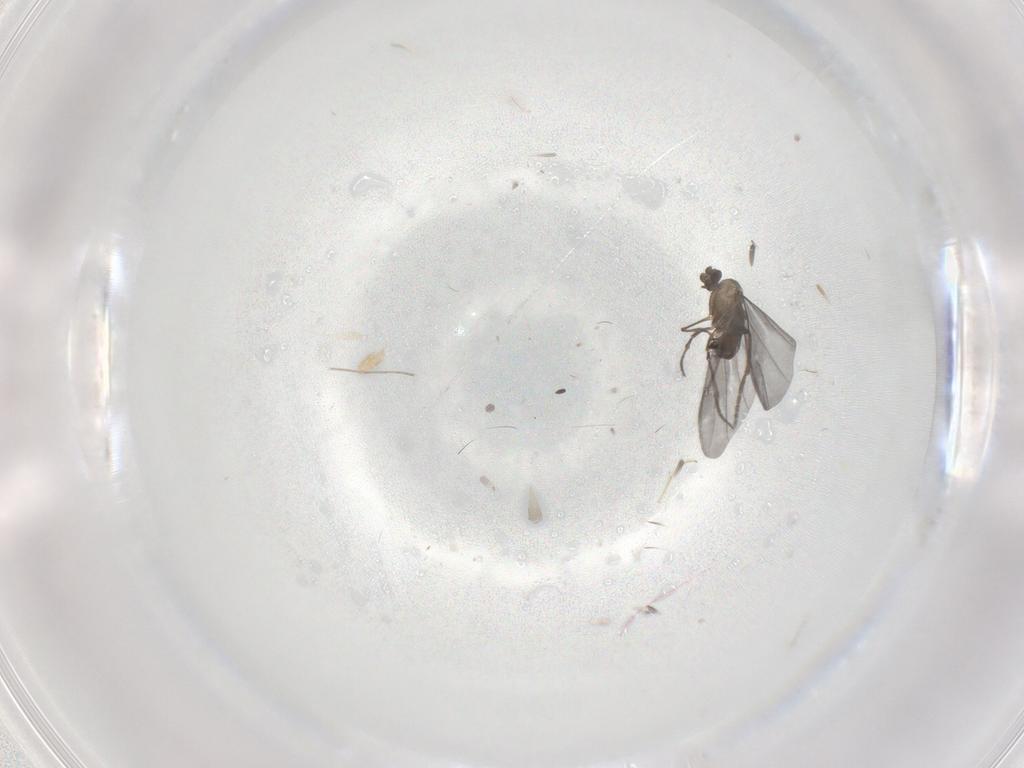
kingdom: Animalia
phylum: Arthropoda
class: Insecta
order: Diptera
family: Phoridae
